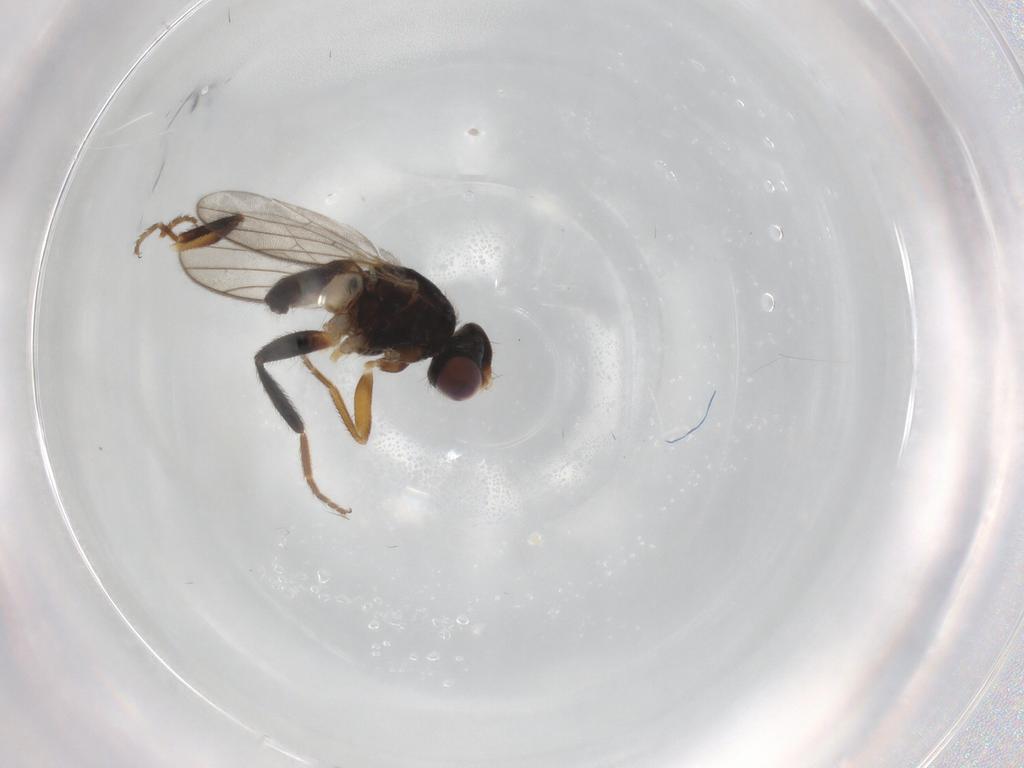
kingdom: Animalia
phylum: Arthropoda
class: Insecta
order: Diptera
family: Chloropidae
